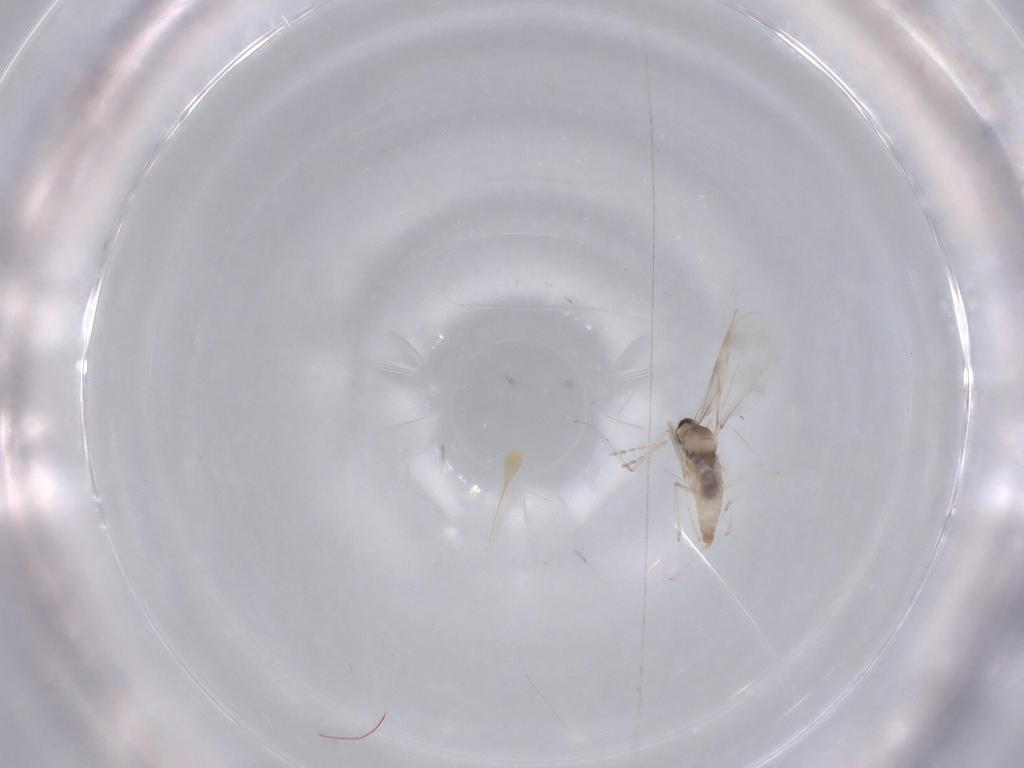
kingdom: Animalia
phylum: Arthropoda
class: Insecta
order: Diptera
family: Cecidomyiidae
